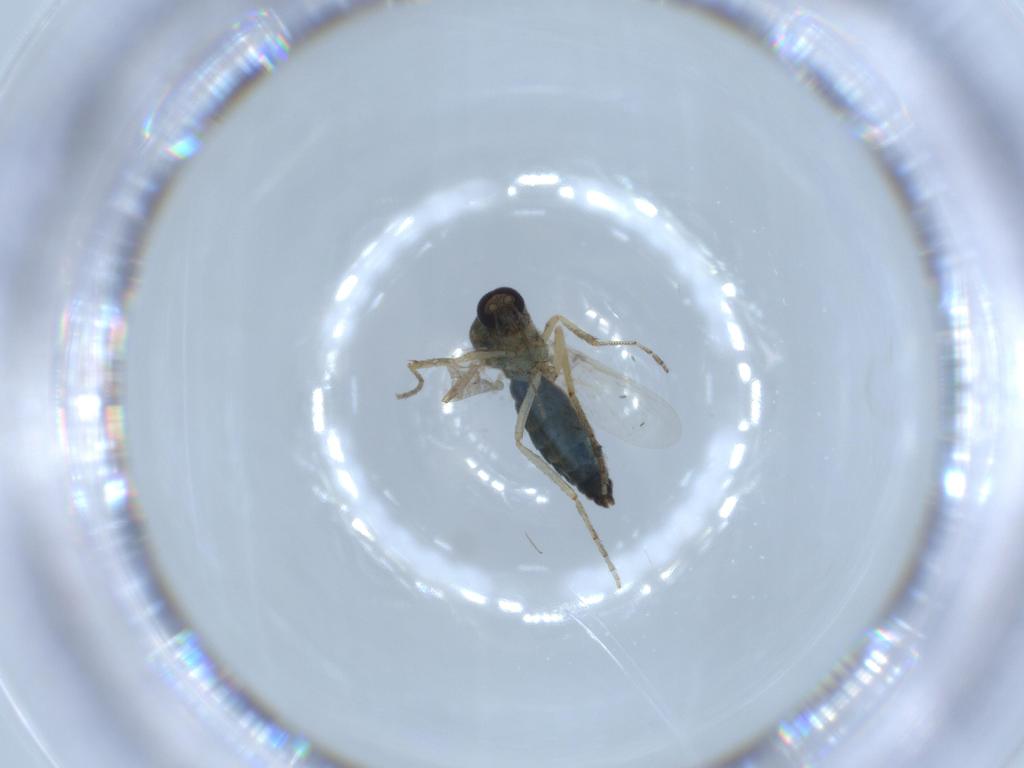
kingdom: Animalia
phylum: Arthropoda
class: Insecta
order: Diptera
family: Ceratopogonidae
